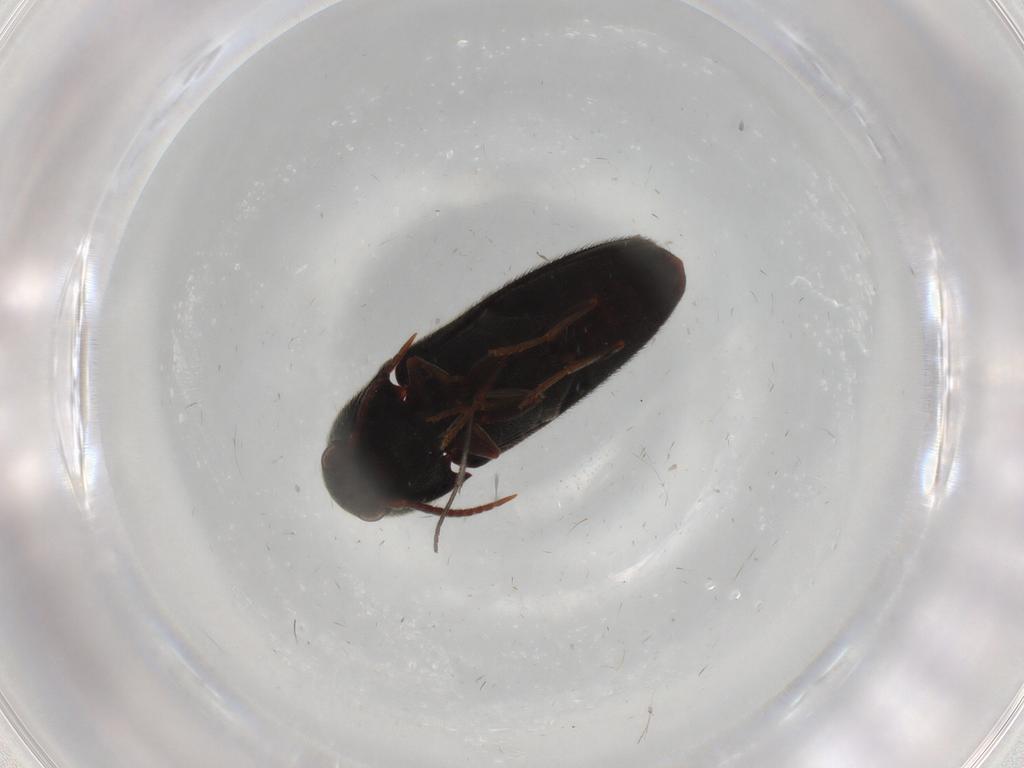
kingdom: Animalia
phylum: Arthropoda
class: Insecta
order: Coleoptera
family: Eucnemidae
